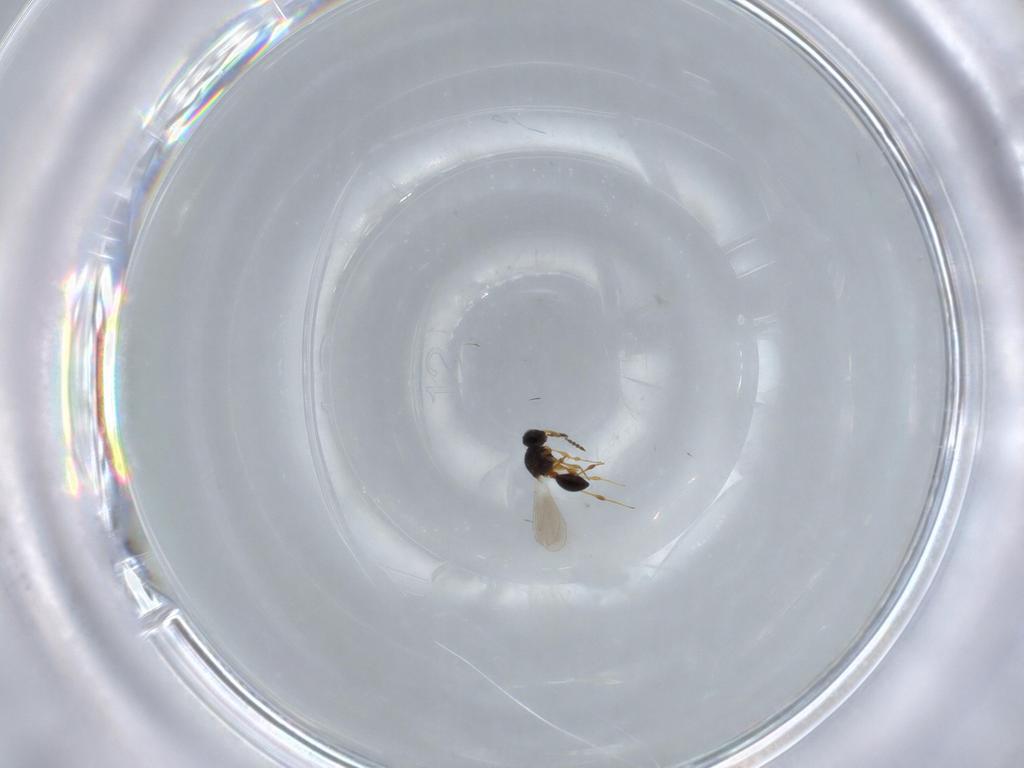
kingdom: Animalia
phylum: Arthropoda
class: Insecta
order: Hymenoptera
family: Platygastridae
